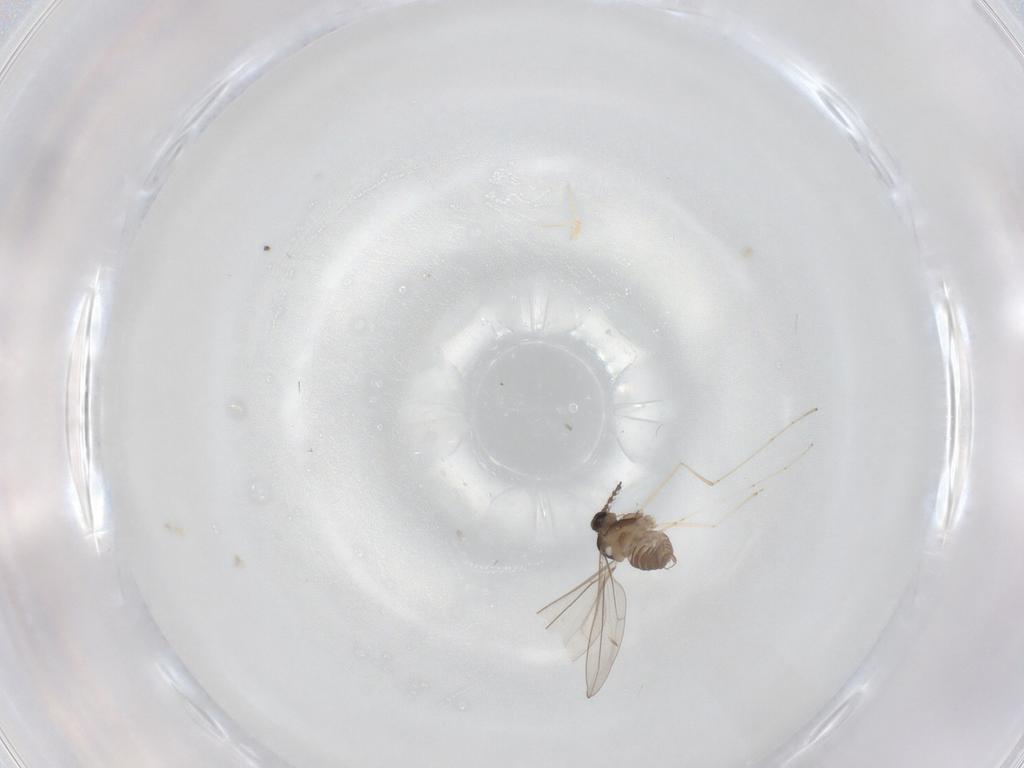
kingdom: Animalia
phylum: Arthropoda
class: Insecta
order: Diptera
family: Cecidomyiidae
